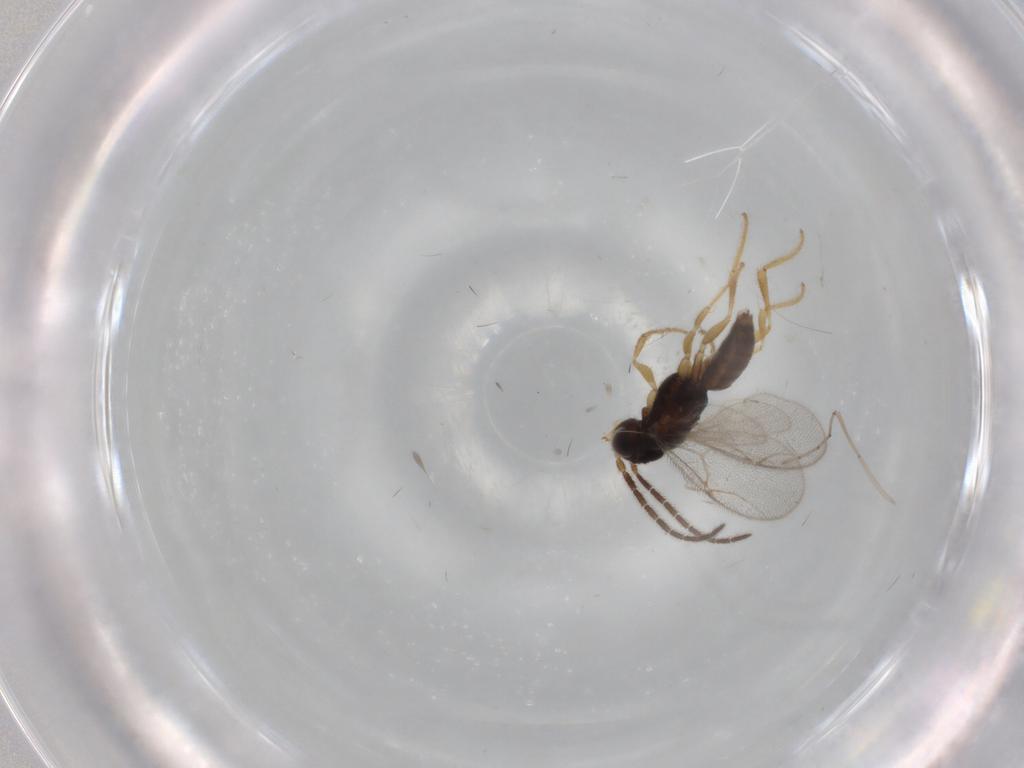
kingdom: Animalia
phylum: Arthropoda
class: Insecta
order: Hymenoptera
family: Dryinidae
